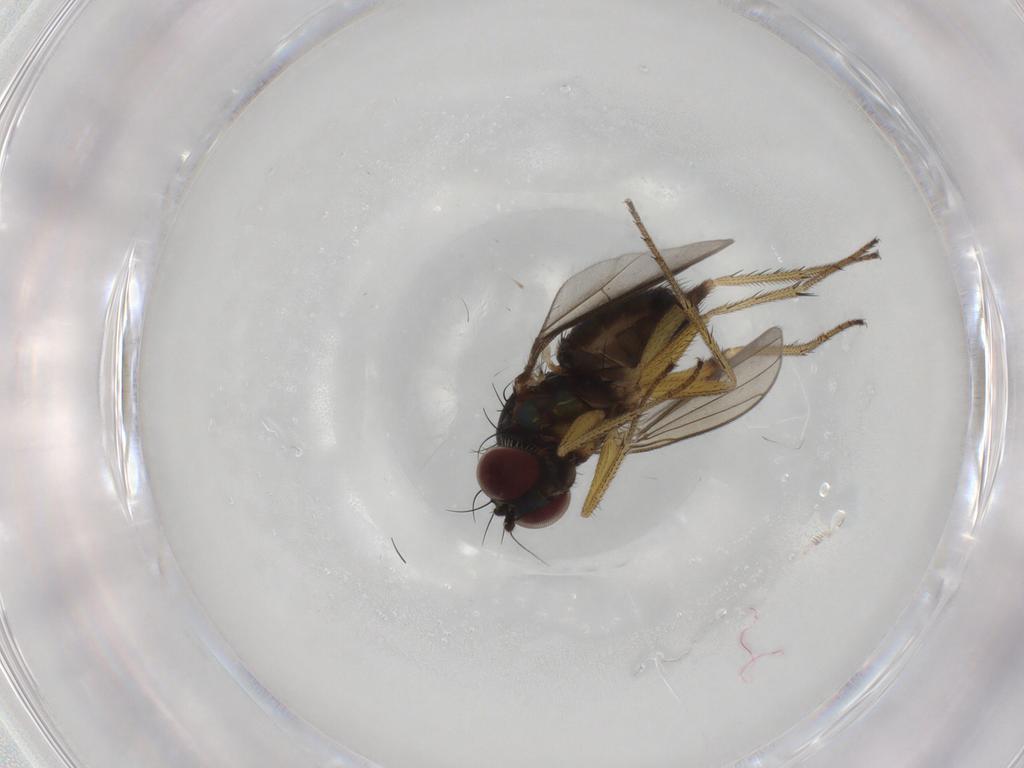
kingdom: Animalia
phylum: Arthropoda
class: Insecta
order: Diptera
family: Dolichopodidae
